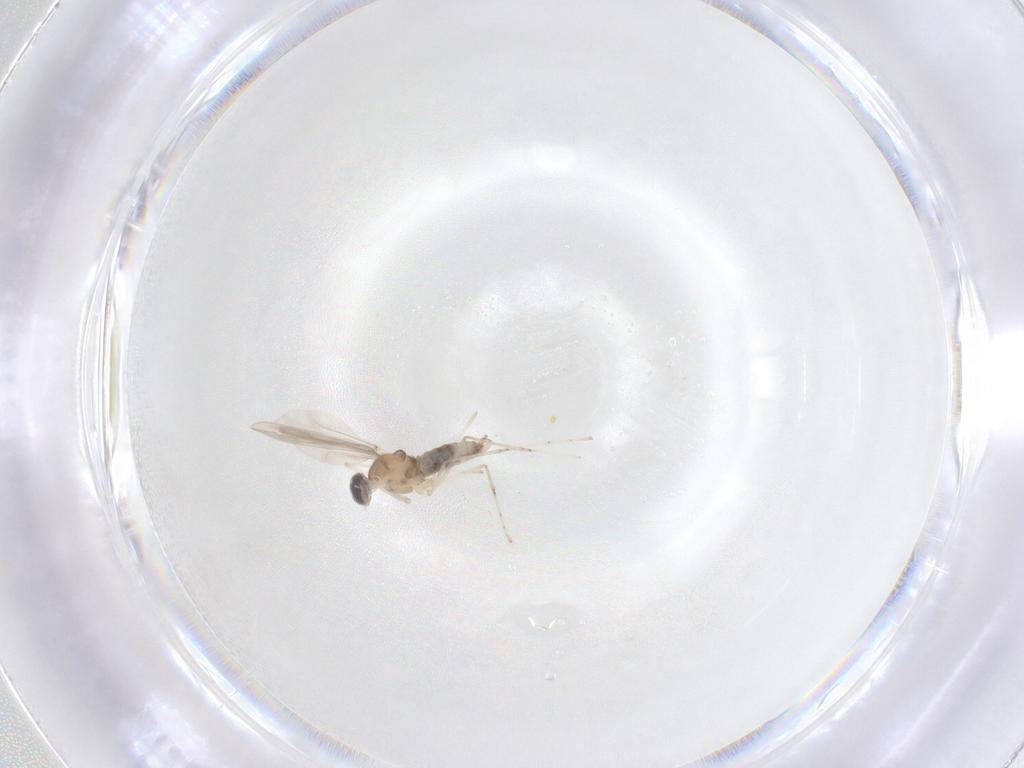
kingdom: Animalia
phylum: Arthropoda
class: Insecta
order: Diptera
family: Cecidomyiidae
